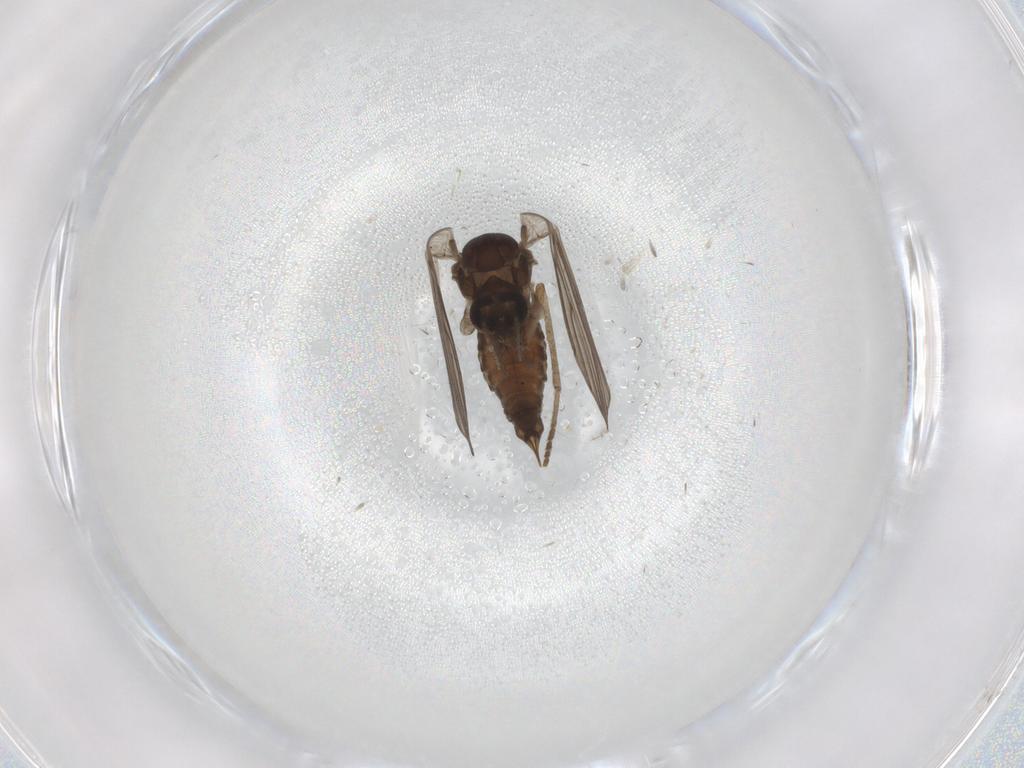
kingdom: Animalia
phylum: Arthropoda
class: Insecta
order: Diptera
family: Psychodidae
